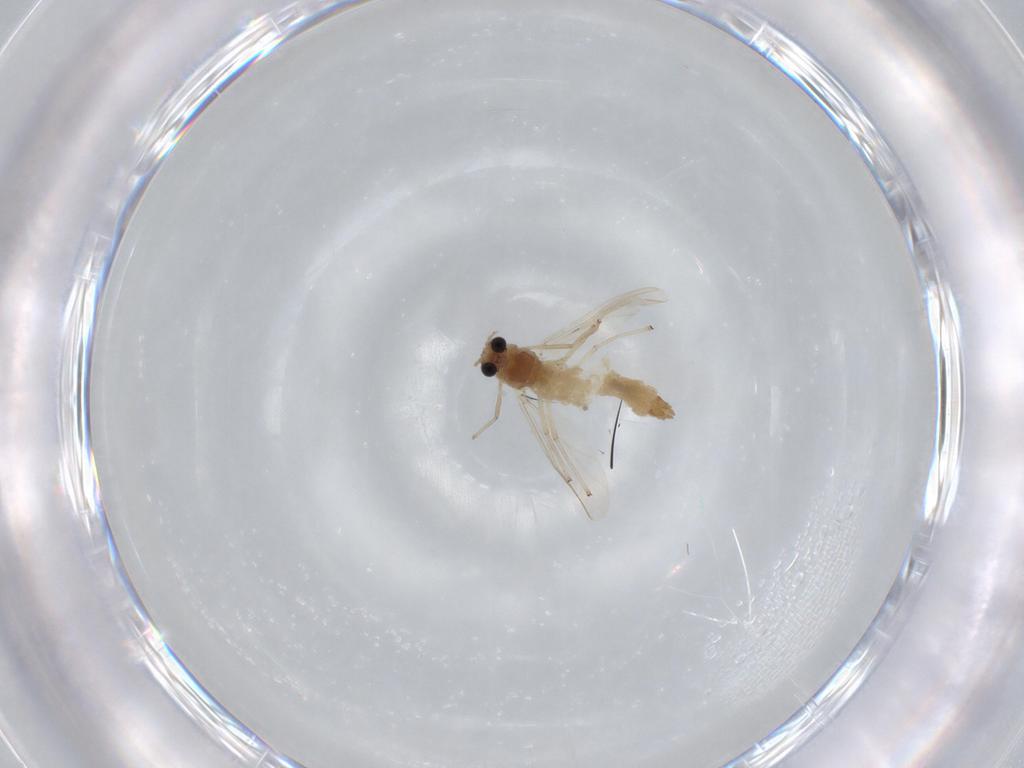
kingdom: Animalia
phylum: Arthropoda
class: Insecta
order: Diptera
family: Chironomidae
